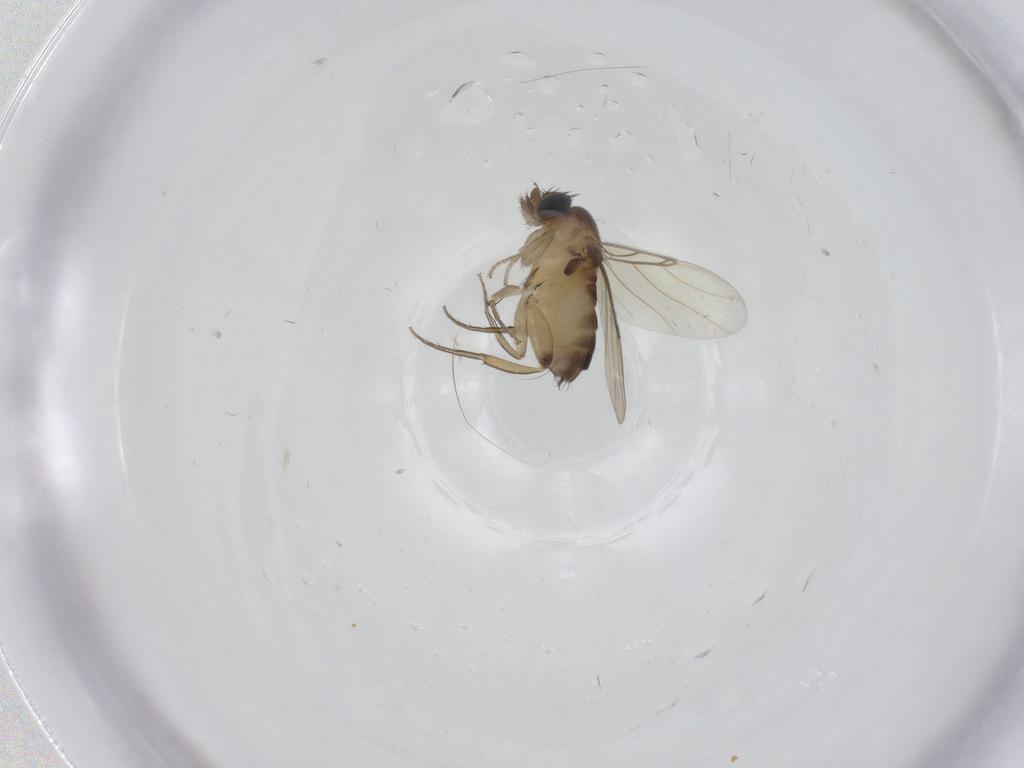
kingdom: Animalia
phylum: Arthropoda
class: Insecta
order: Diptera
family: Phoridae
